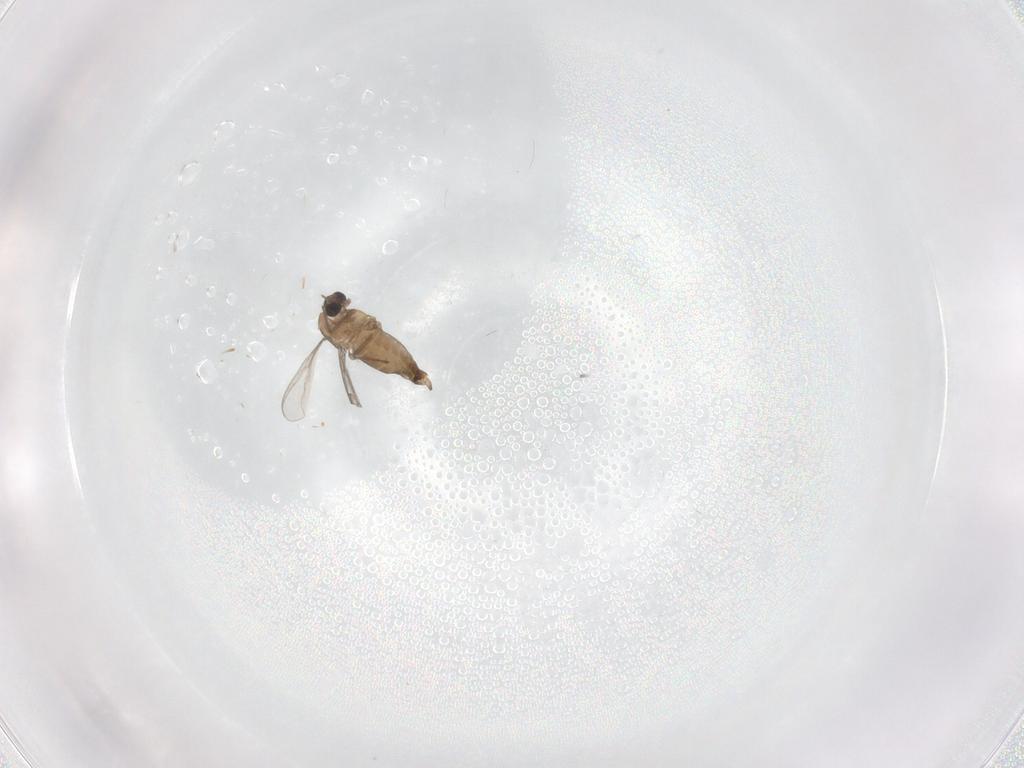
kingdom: Animalia
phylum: Arthropoda
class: Insecta
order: Diptera
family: Chironomidae
